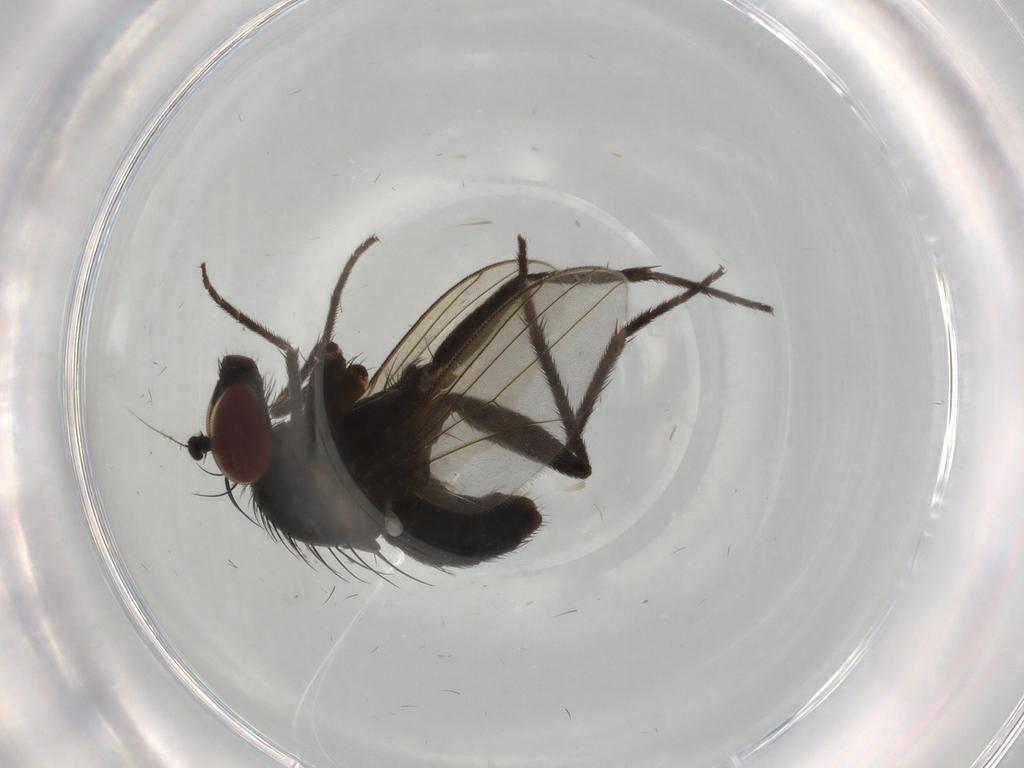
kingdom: Animalia
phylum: Arthropoda
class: Insecta
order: Diptera
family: Dolichopodidae
